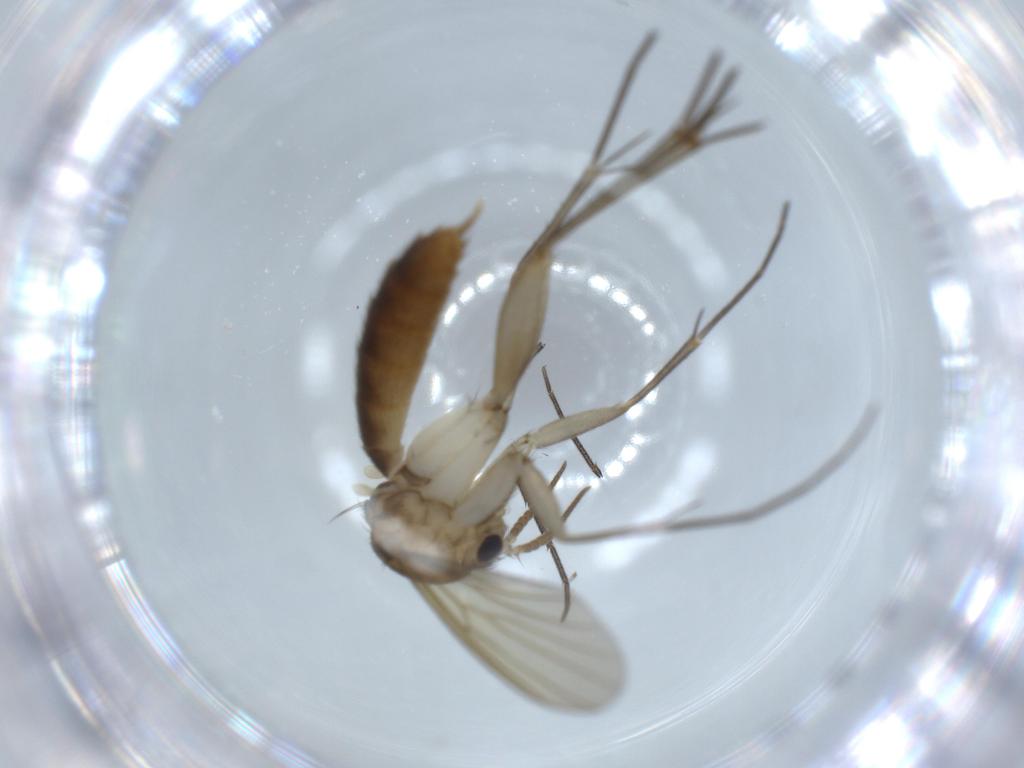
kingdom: Animalia
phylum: Arthropoda
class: Insecta
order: Diptera
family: Mycetophilidae
